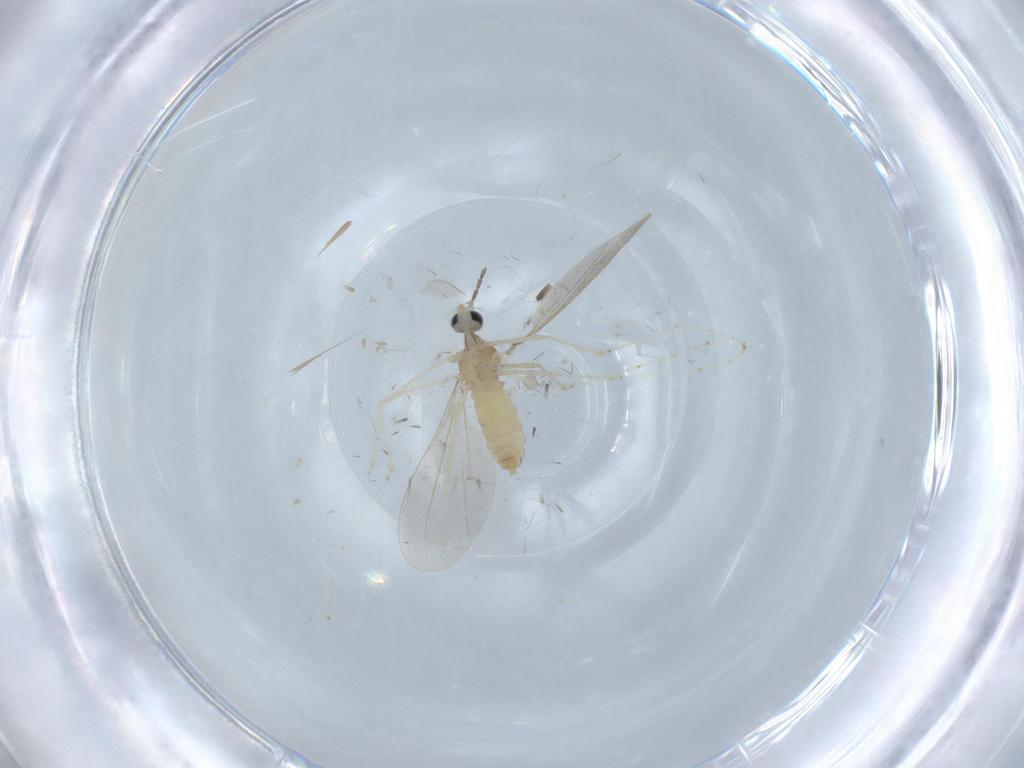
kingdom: Animalia
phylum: Arthropoda
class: Insecta
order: Diptera
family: Cecidomyiidae
